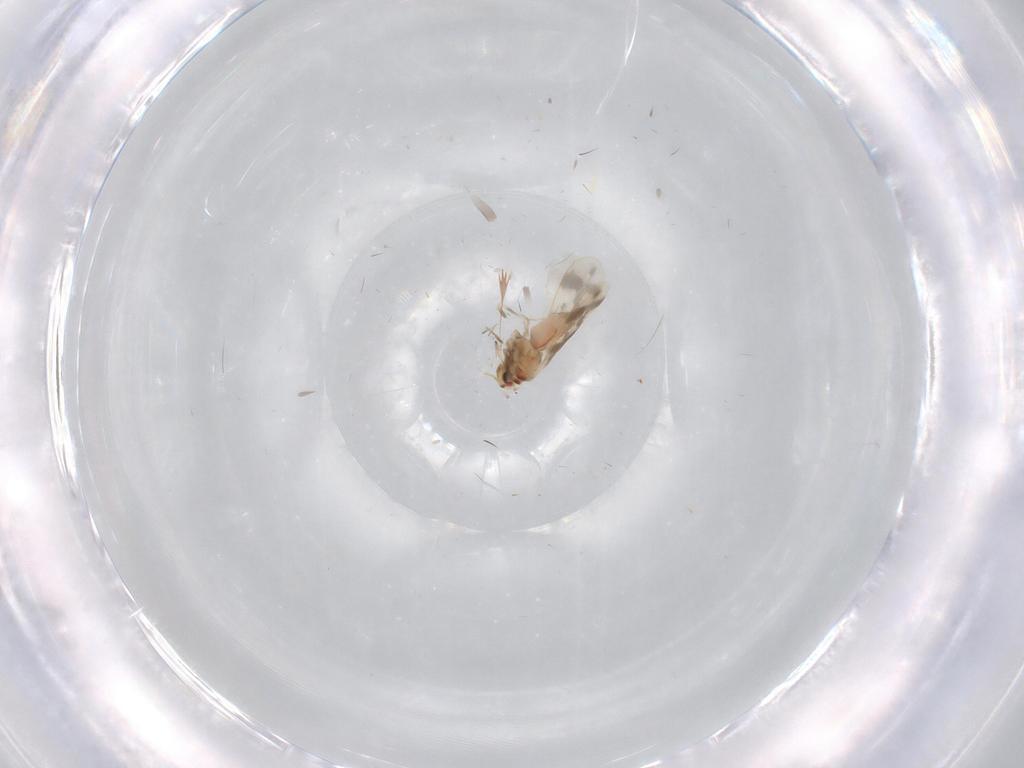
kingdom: Animalia
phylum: Arthropoda
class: Insecta
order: Hemiptera
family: Aleyrodidae
